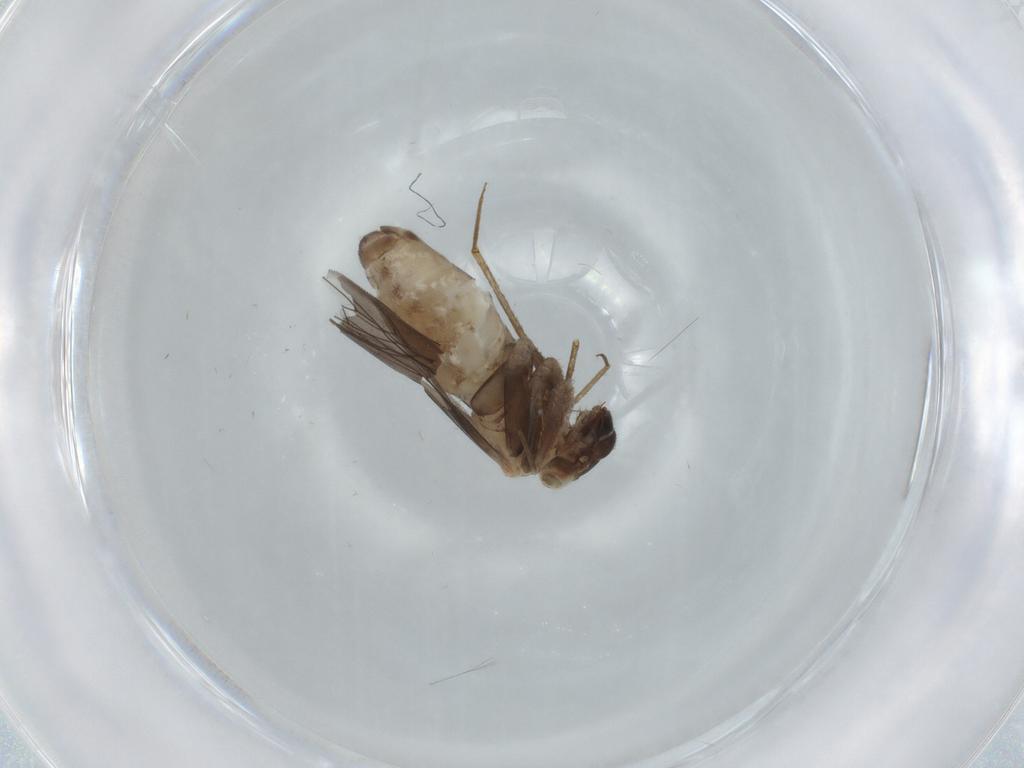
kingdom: Animalia
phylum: Arthropoda
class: Insecta
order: Psocodea
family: Lepidopsocidae
